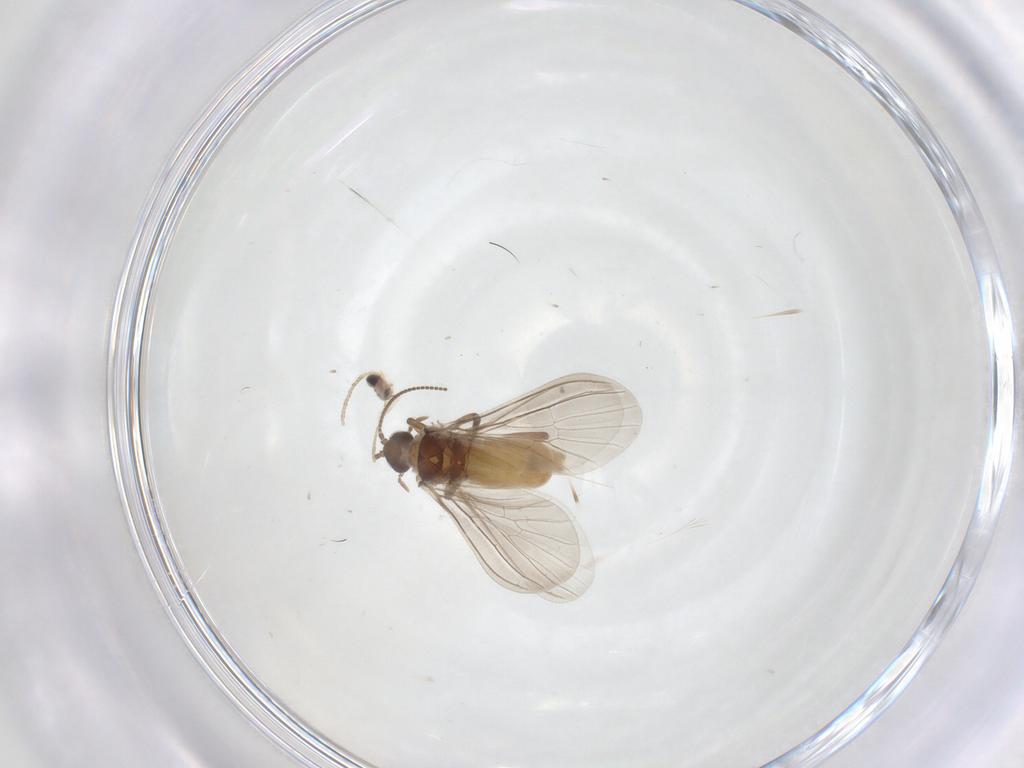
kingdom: Animalia
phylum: Arthropoda
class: Insecta
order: Neuroptera
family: Coniopterygidae
